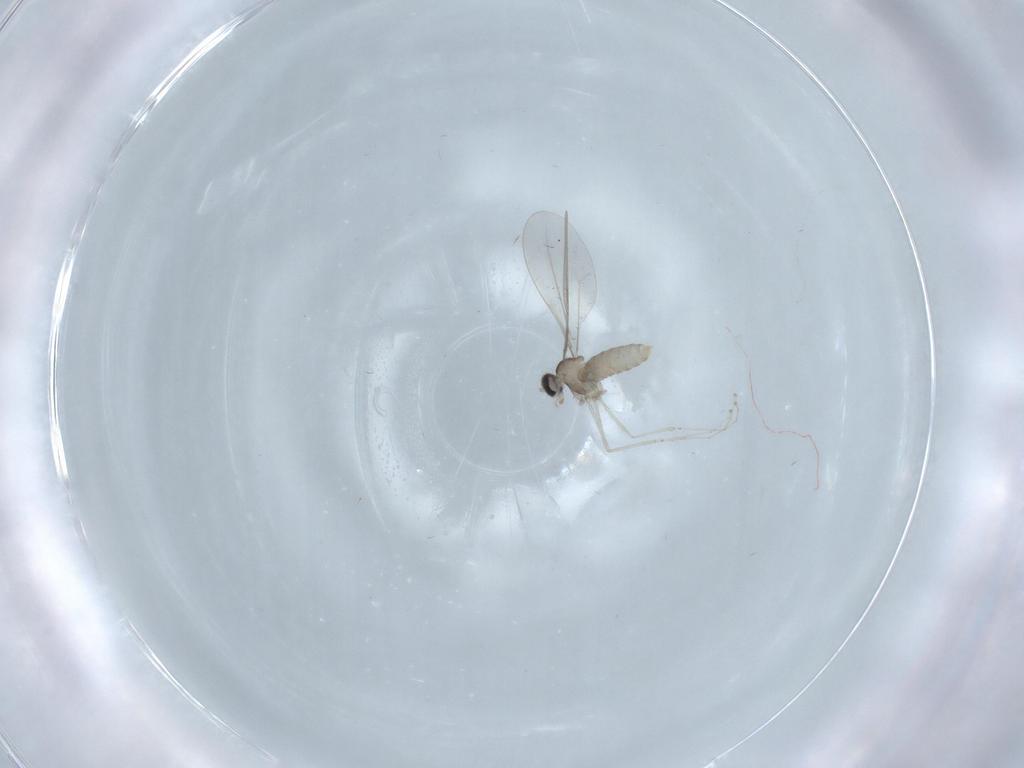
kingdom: Animalia
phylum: Arthropoda
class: Insecta
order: Diptera
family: Cecidomyiidae
